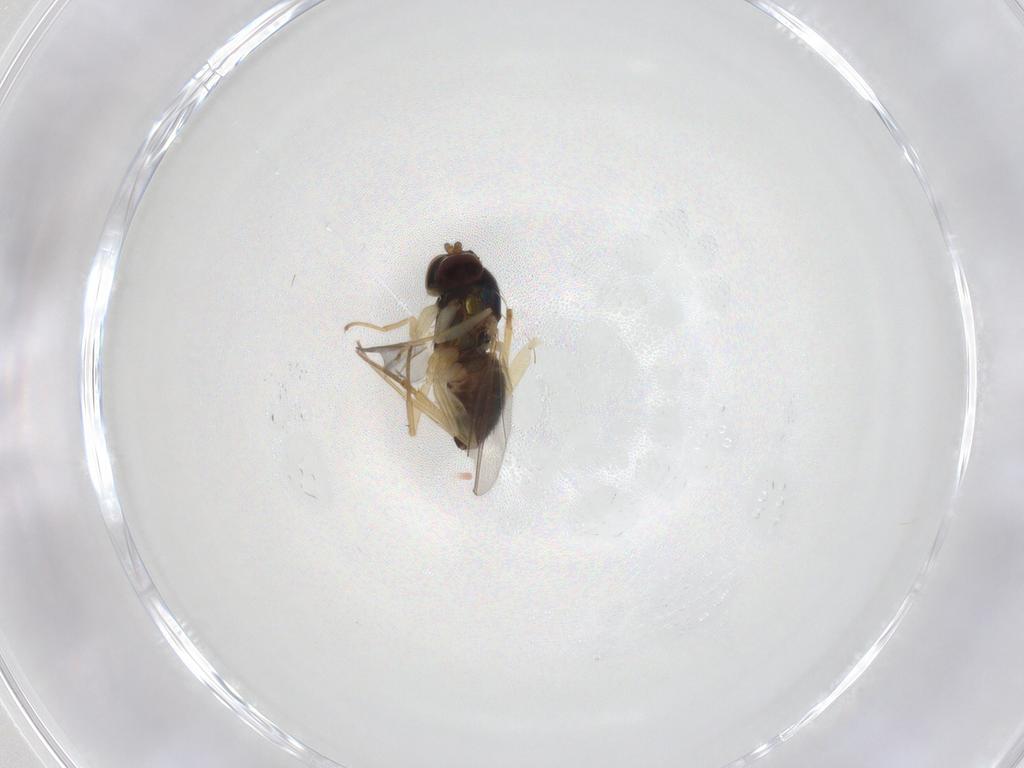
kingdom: Animalia
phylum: Arthropoda
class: Insecta
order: Diptera
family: Dolichopodidae
